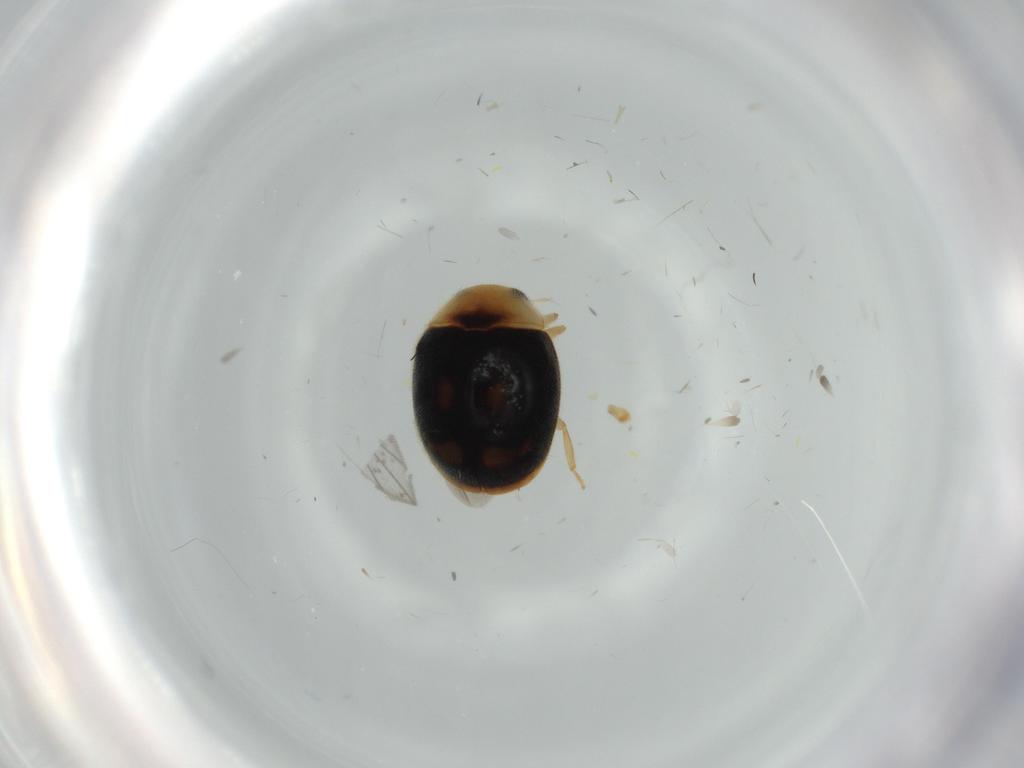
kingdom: Animalia
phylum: Arthropoda
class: Insecta
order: Coleoptera
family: Cleridae
